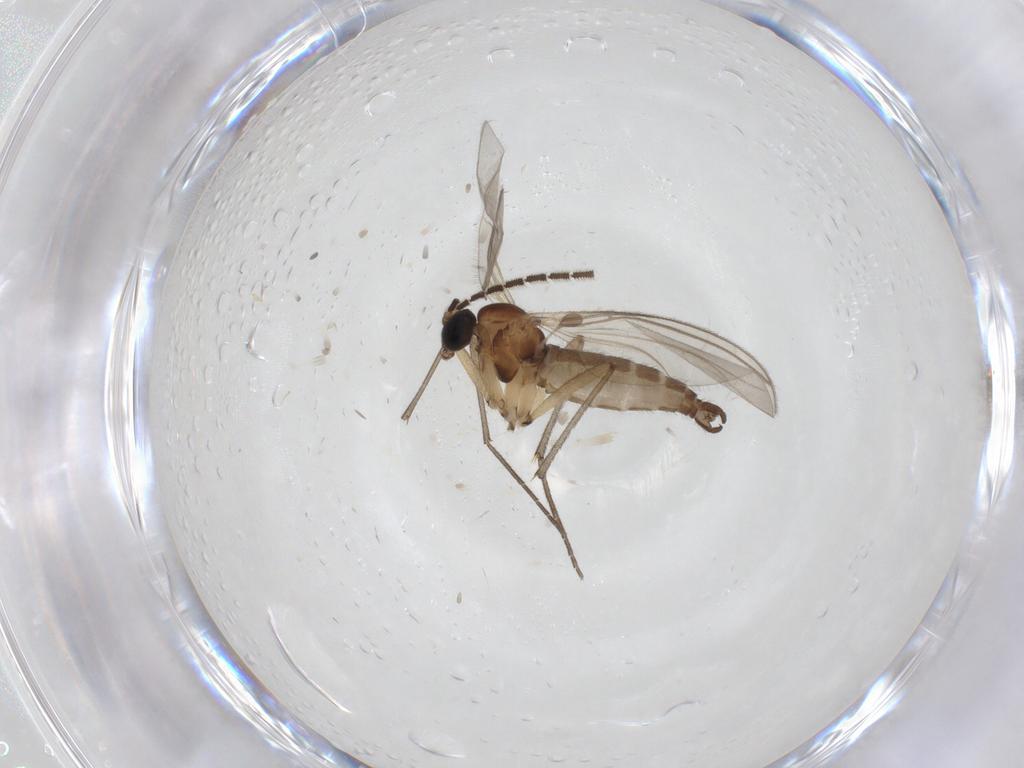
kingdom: Animalia
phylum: Arthropoda
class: Insecta
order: Diptera
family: Sciaridae
